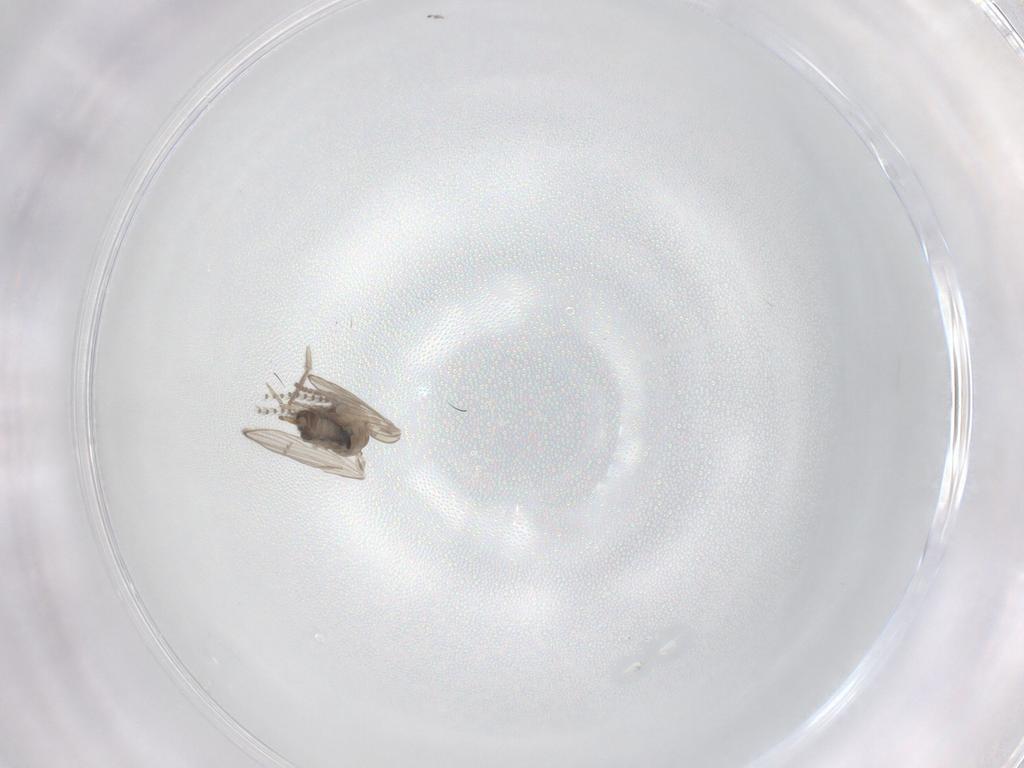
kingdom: Animalia
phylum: Arthropoda
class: Insecta
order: Diptera
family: Psychodidae
